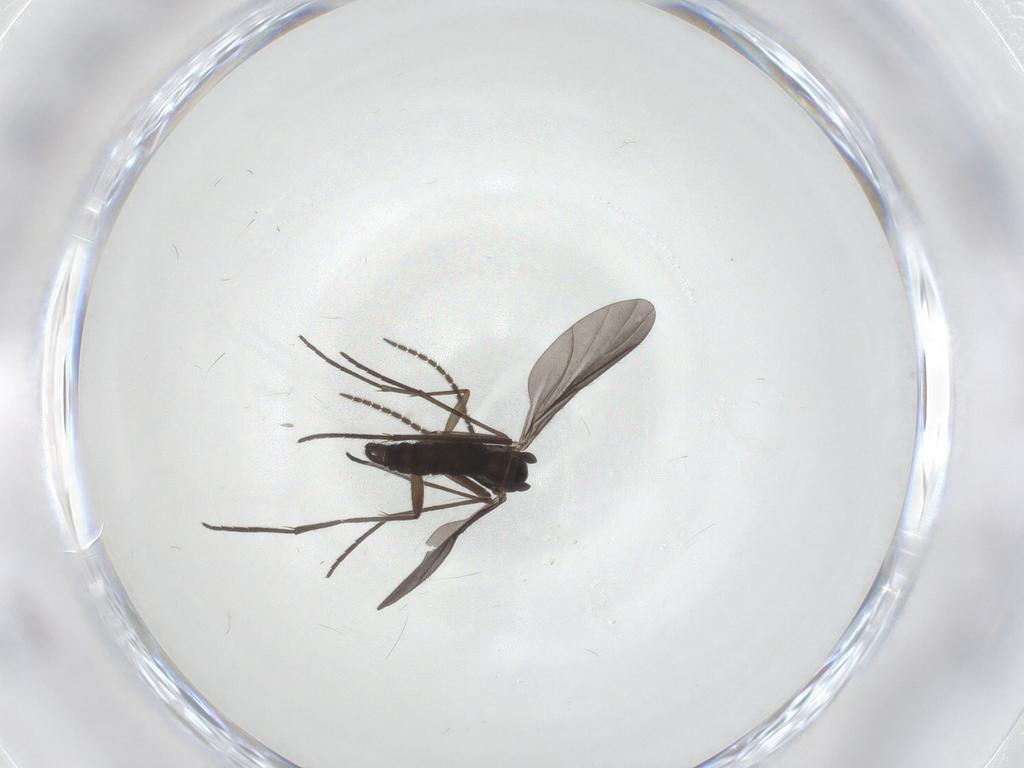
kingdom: Animalia
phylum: Arthropoda
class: Insecta
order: Diptera
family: Sciaridae
